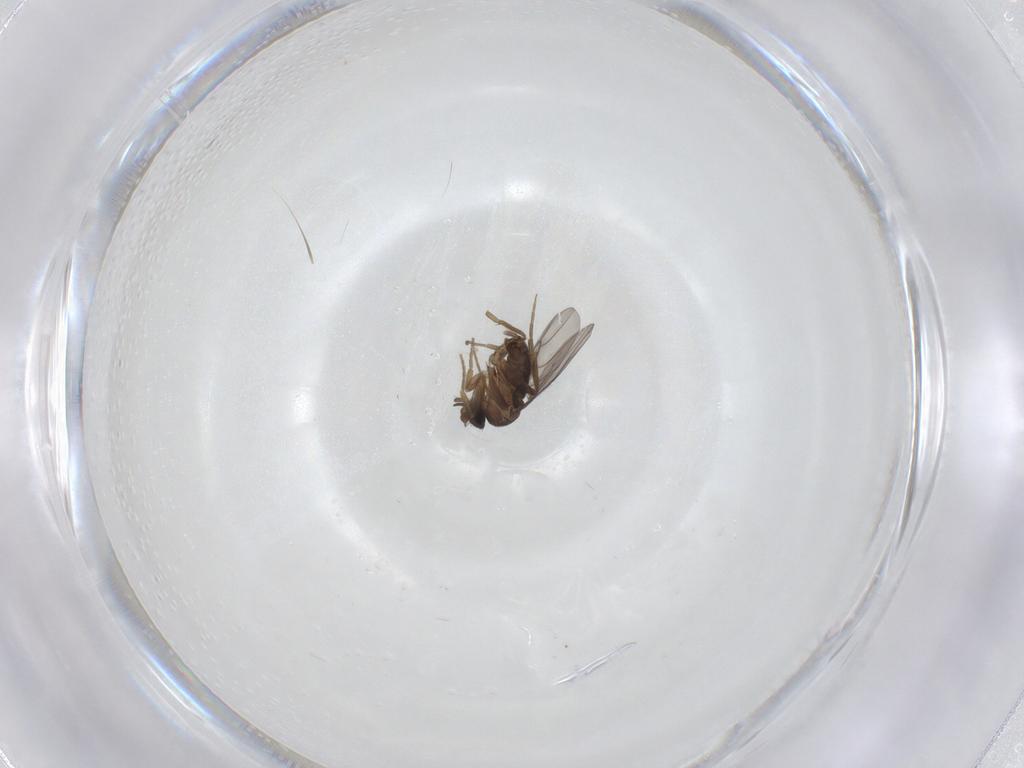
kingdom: Animalia
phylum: Arthropoda
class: Insecta
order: Diptera
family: Phoridae
